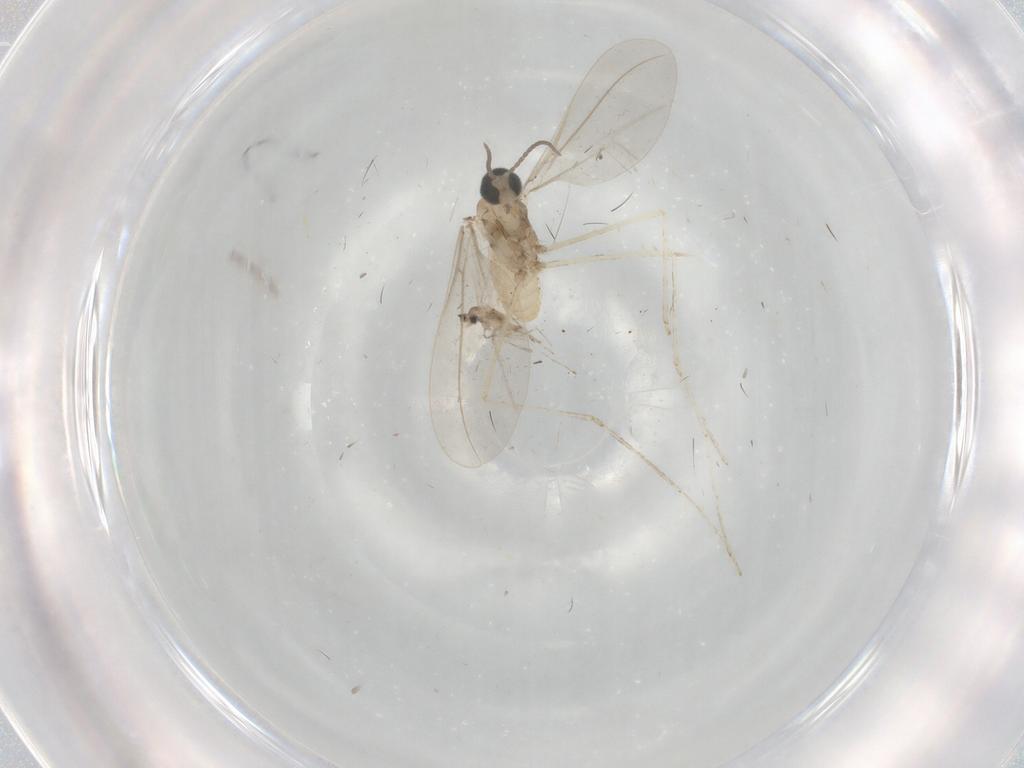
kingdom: Animalia
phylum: Arthropoda
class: Insecta
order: Diptera
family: Cecidomyiidae
